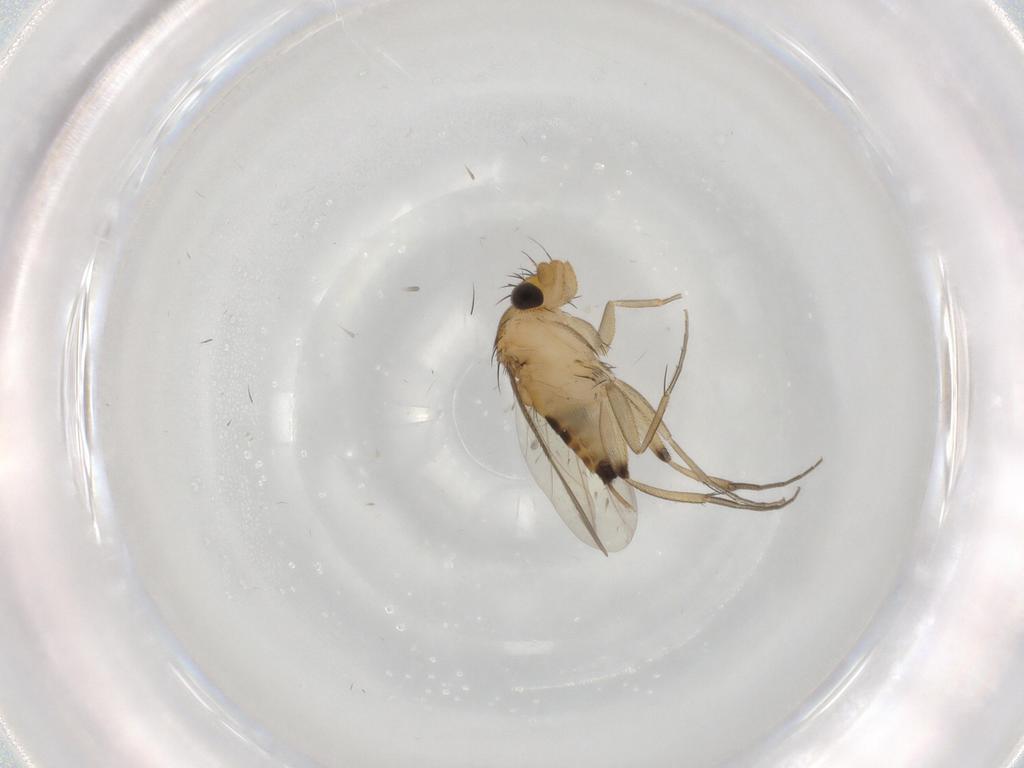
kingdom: Animalia
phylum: Arthropoda
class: Insecta
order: Diptera
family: Phoridae
